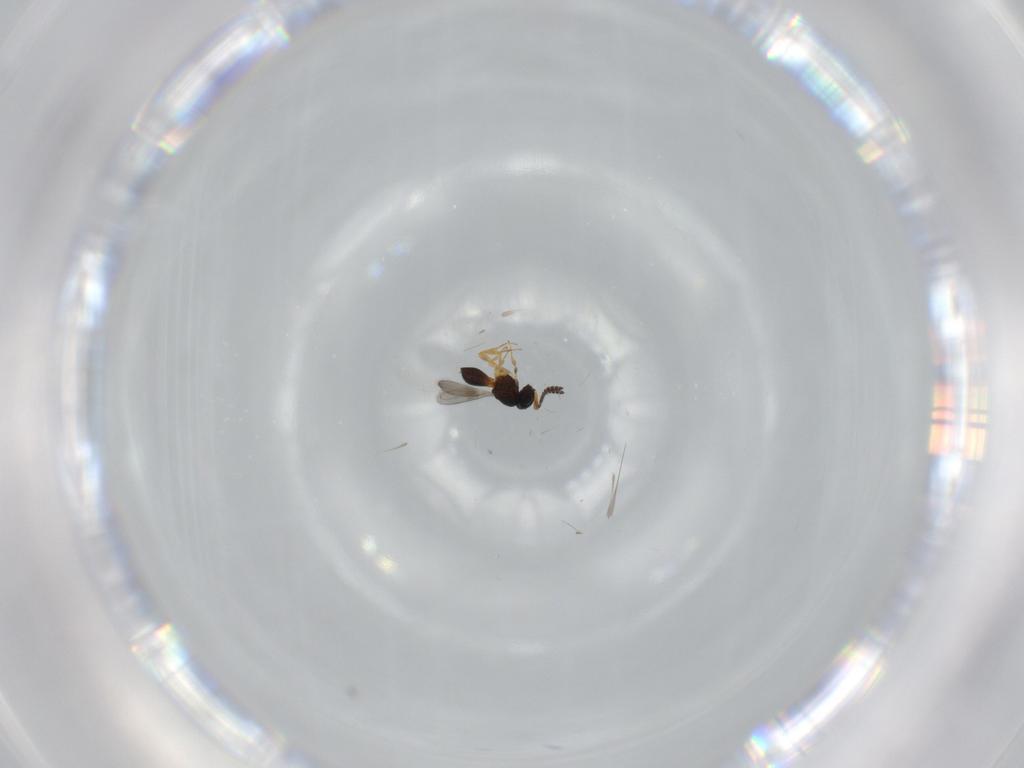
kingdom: Animalia
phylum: Arthropoda
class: Insecta
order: Hymenoptera
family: Scelionidae
